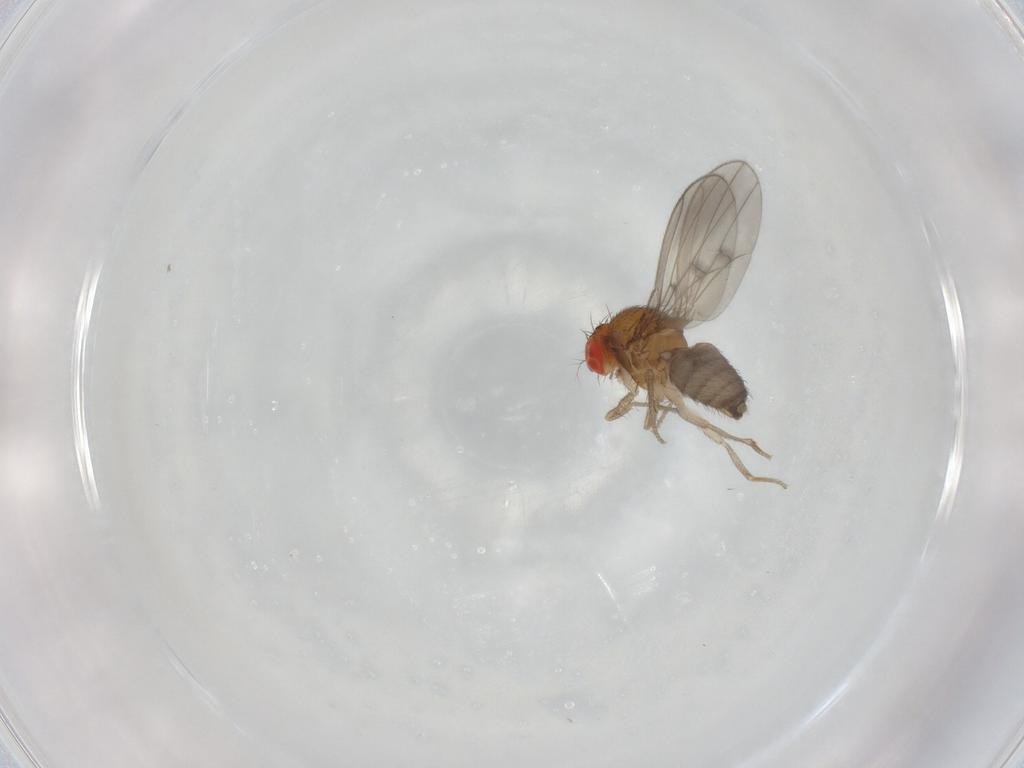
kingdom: Animalia
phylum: Arthropoda
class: Insecta
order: Diptera
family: Drosophilidae
